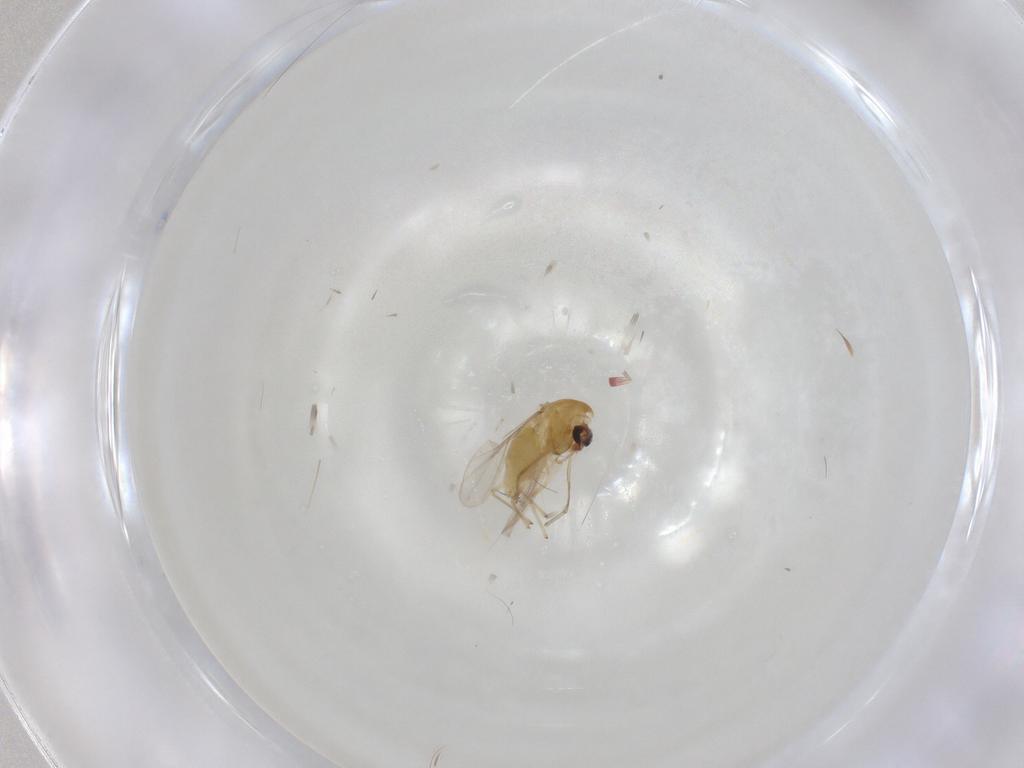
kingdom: Animalia
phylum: Arthropoda
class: Insecta
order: Diptera
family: Chironomidae
